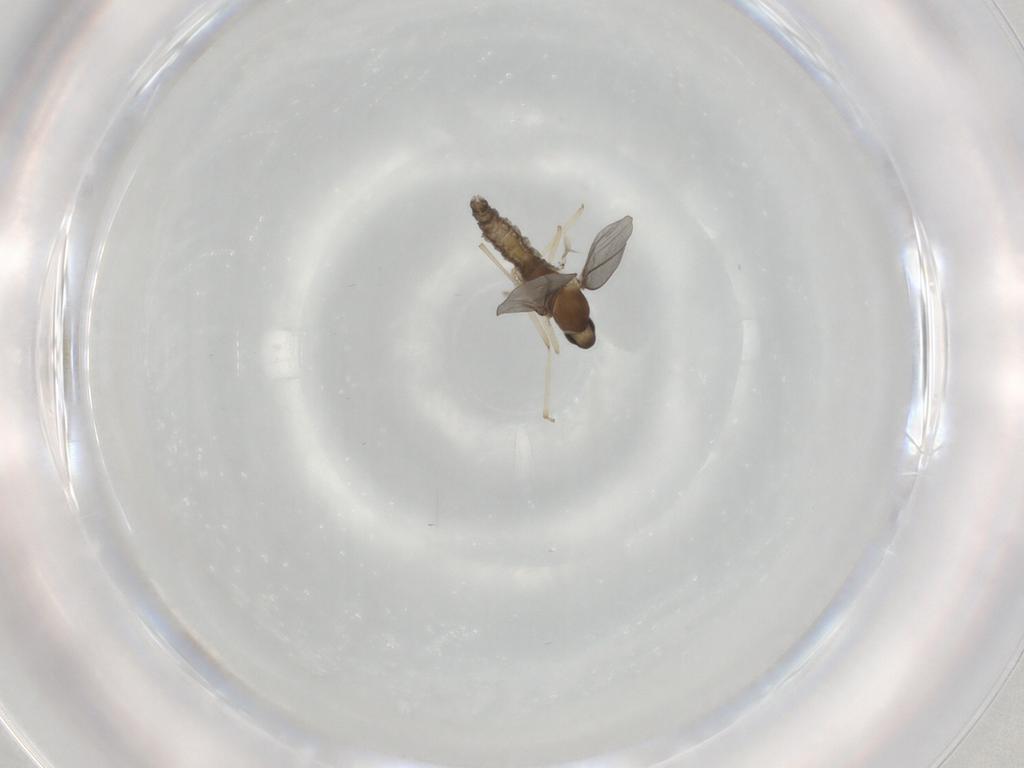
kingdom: Animalia
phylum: Arthropoda
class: Insecta
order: Diptera
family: Cecidomyiidae
